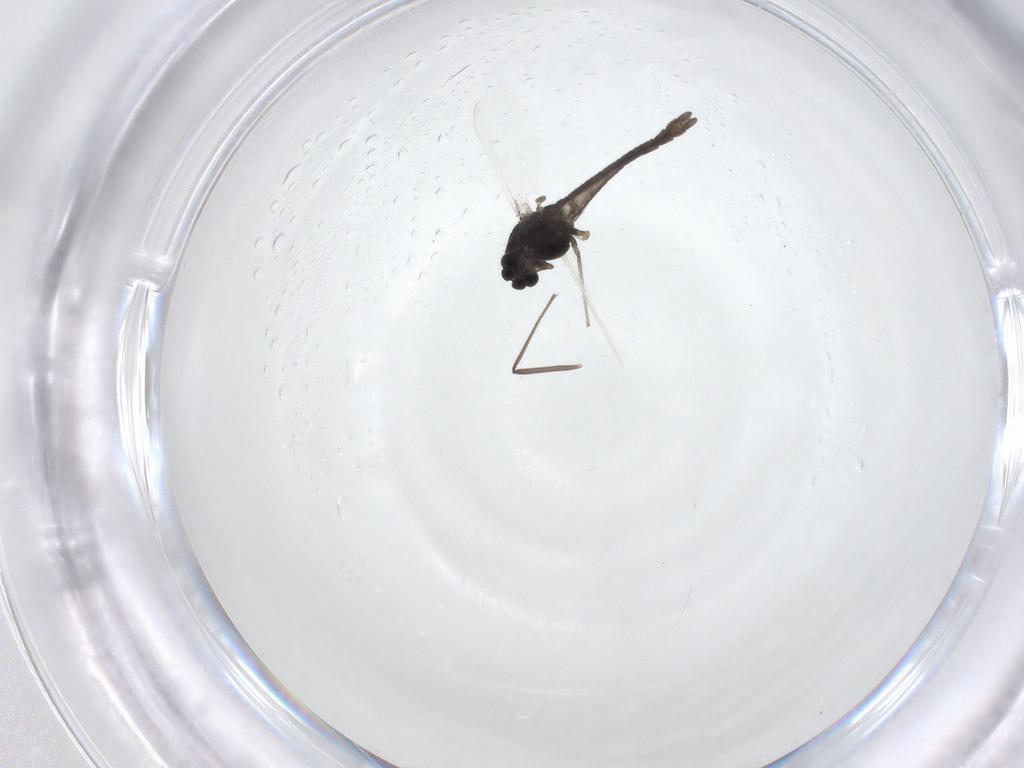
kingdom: Animalia
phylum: Arthropoda
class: Insecta
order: Diptera
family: Chironomidae
